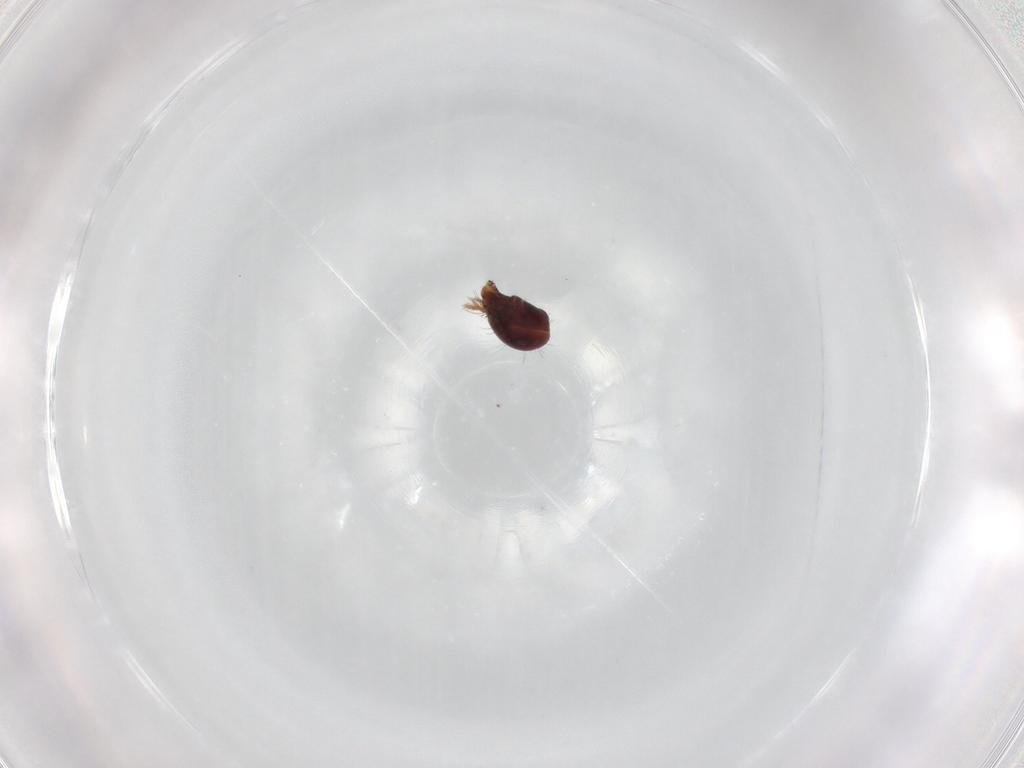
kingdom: Animalia
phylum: Arthropoda
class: Arachnida
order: Sarcoptiformes
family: Humerobatidae
